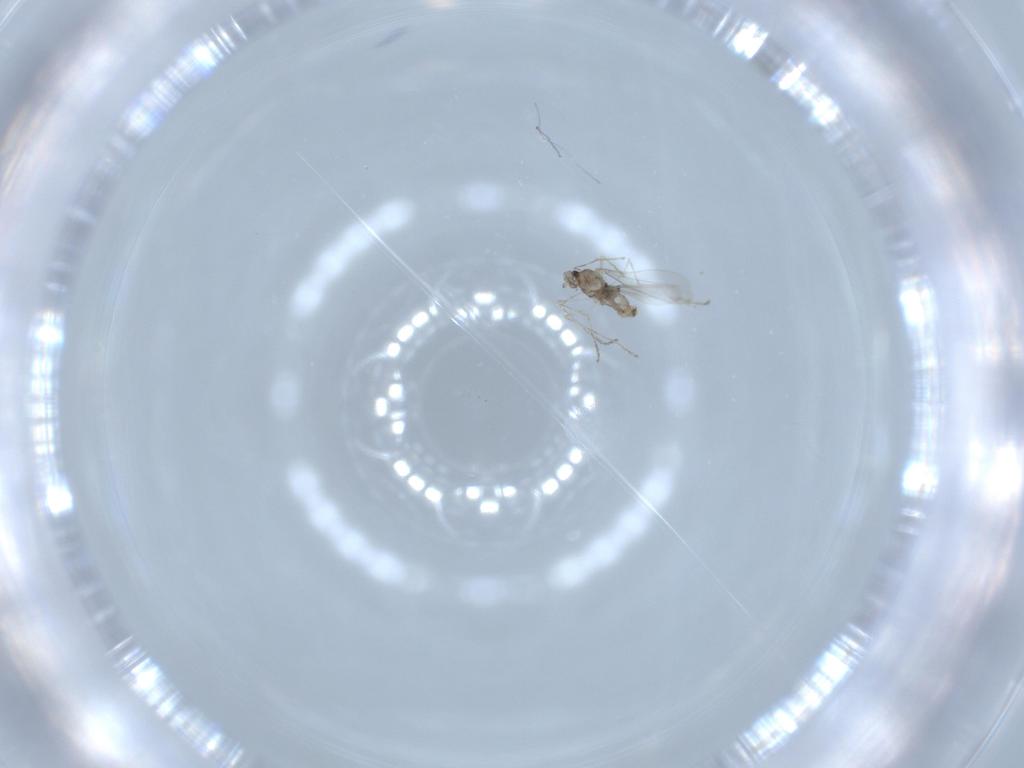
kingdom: Animalia
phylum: Arthropoda
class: Insecta
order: Diptera
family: Cecidomyiidae
